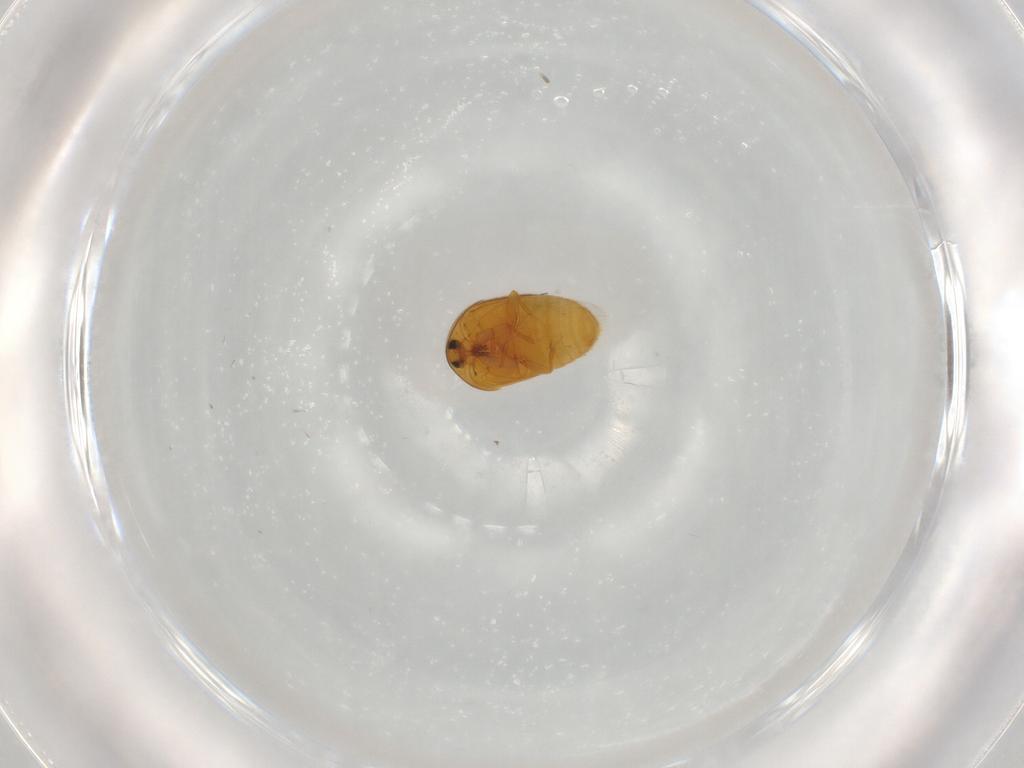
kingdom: Animalia
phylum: Arthropoda
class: Insecta
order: Coleoptera
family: Corylophidae
